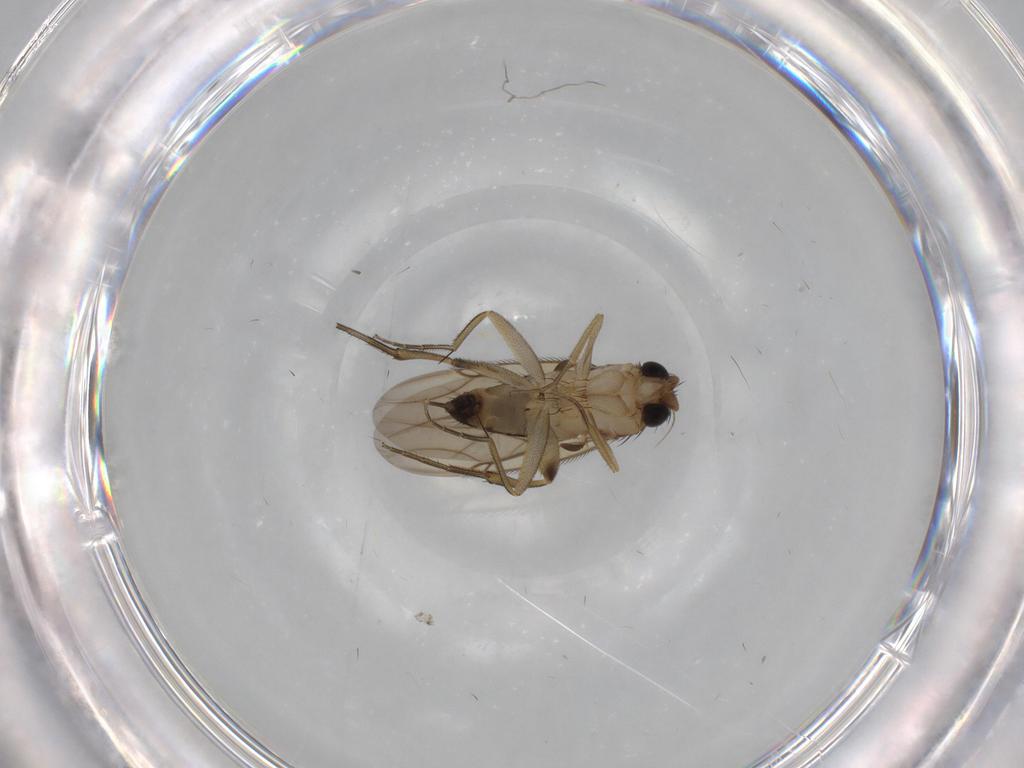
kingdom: Animalia
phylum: Arthropoda
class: Insecta
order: Diptera
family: Phoridae
